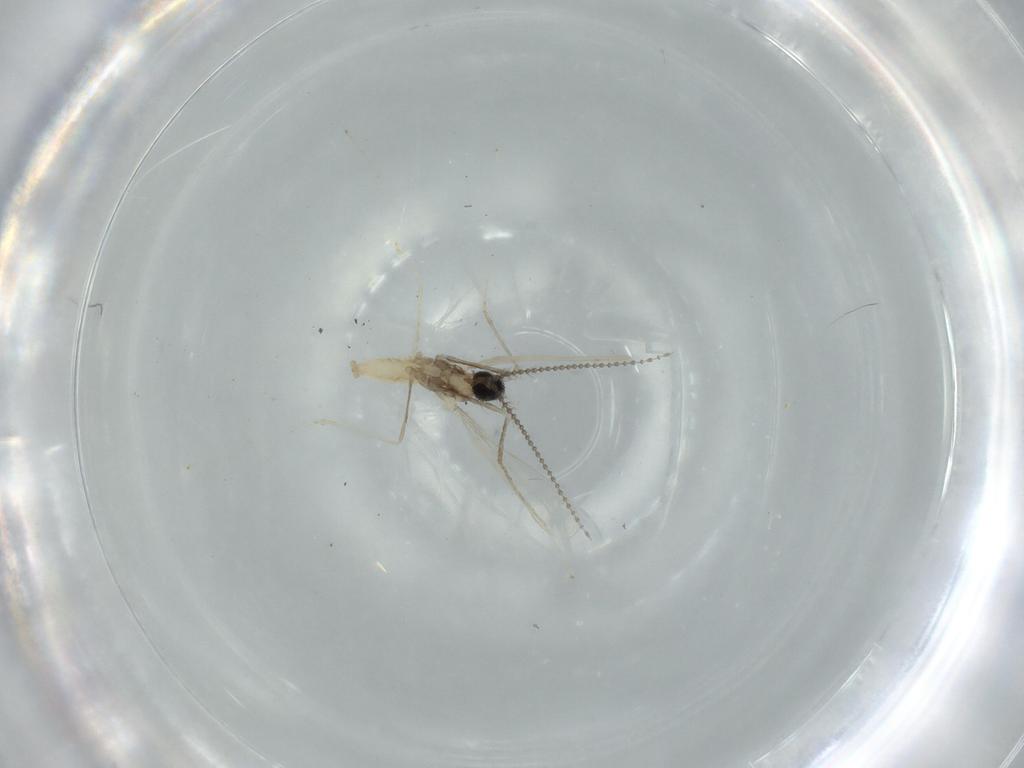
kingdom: Animalia
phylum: Arthropoda
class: Insecta
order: Diptera
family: Cecidomyiidae
